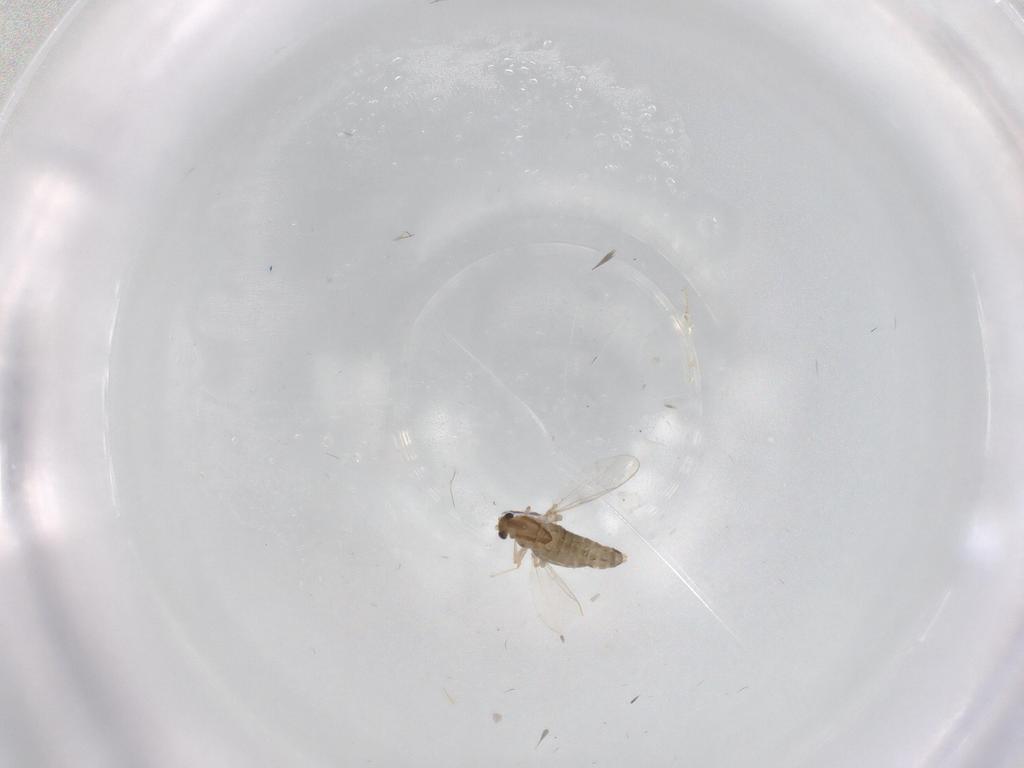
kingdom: Animalia
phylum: Arthropoda
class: Insecta
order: Diptera
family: Chironomidae
